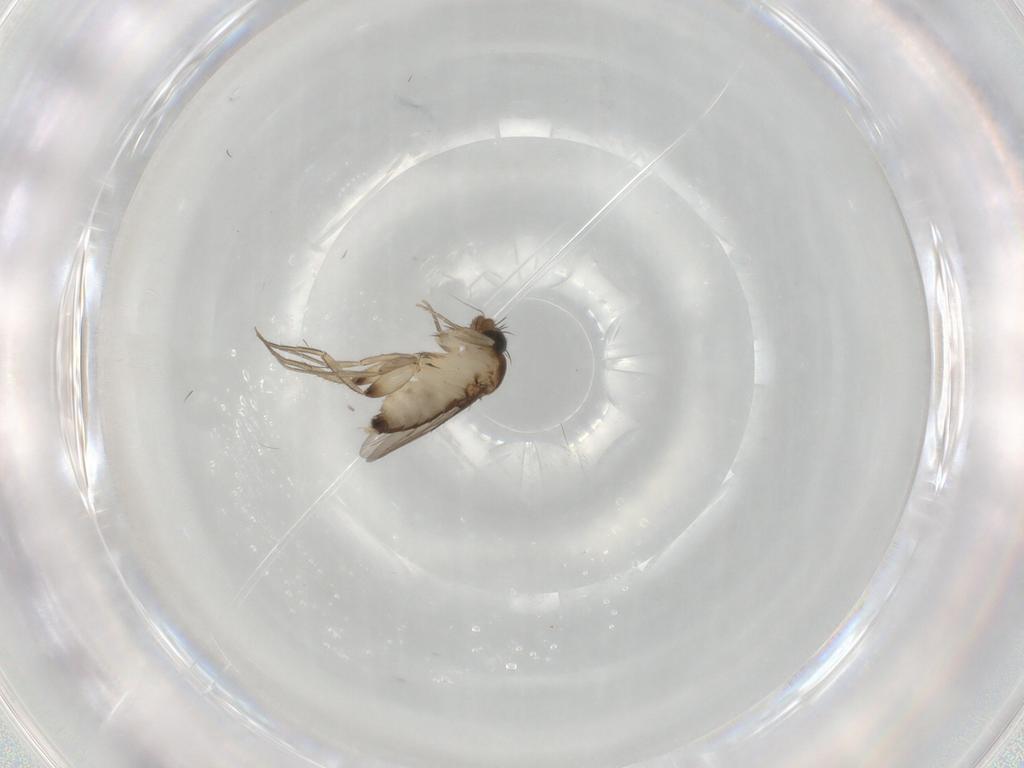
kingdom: Animalia
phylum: Arthropoda
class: Insecta
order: Diptera
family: Phoridae
